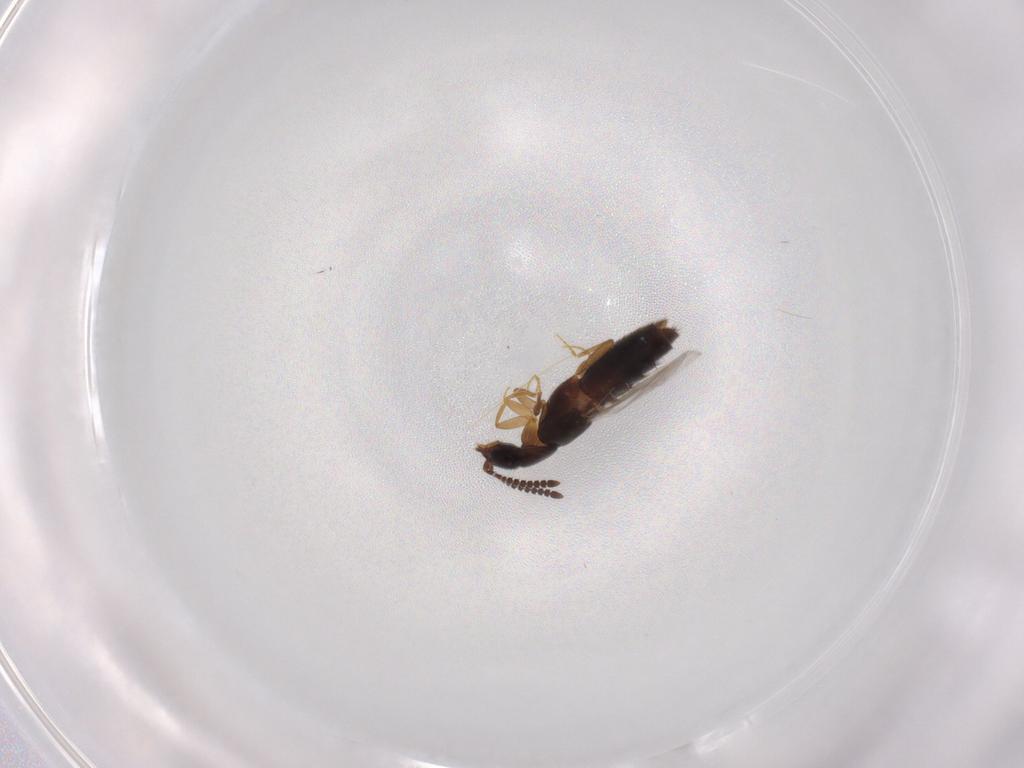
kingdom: Animalia
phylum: Arthropoda
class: Insecta
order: Coleoptera
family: Staphylinidae
